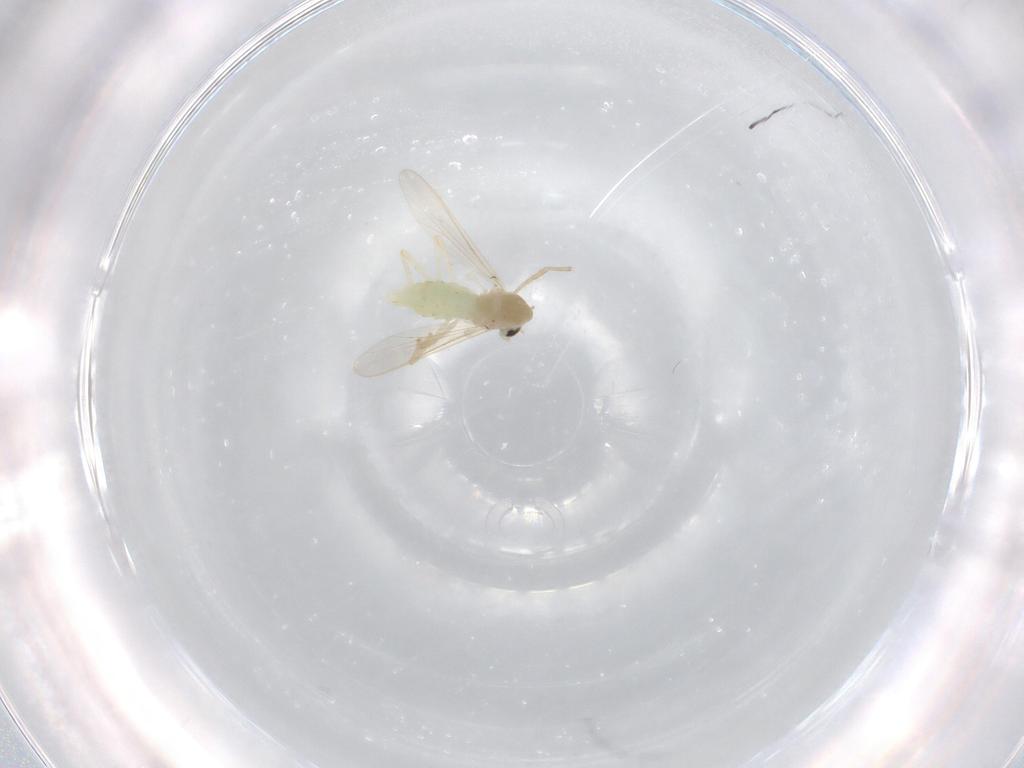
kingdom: Animalia
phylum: Arthropoda
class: Insecta
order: Diptera
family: Chironomidae
